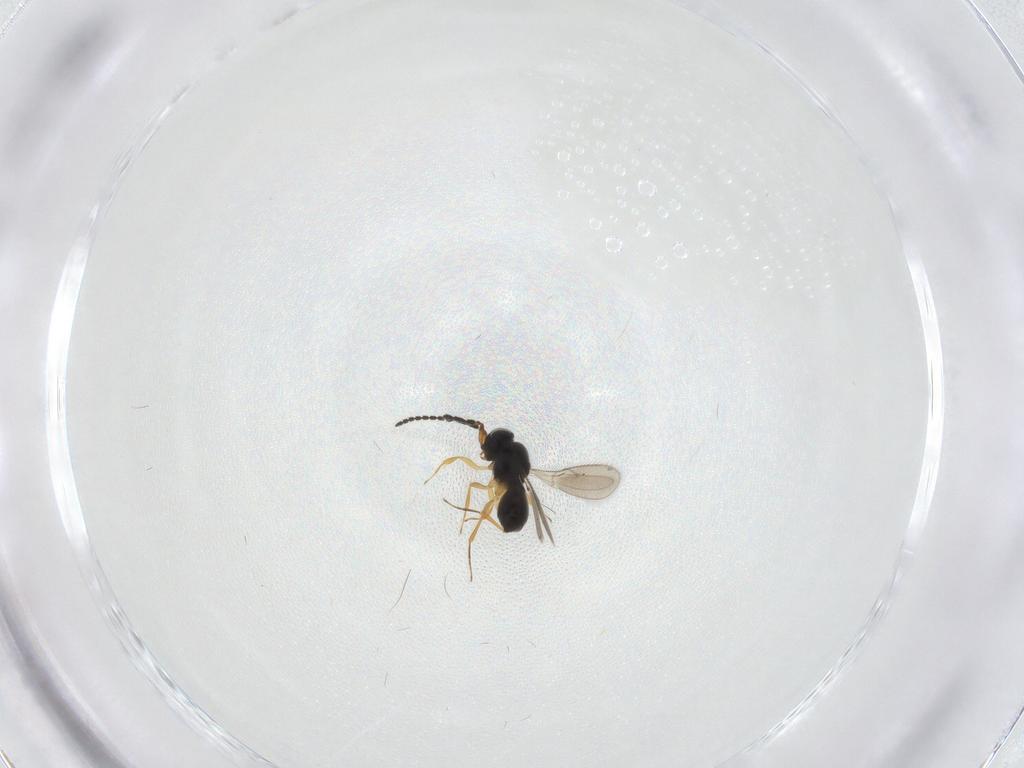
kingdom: Animalia
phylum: Arthropoda
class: Insecta
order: Hymenoptera
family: Scelionidae
